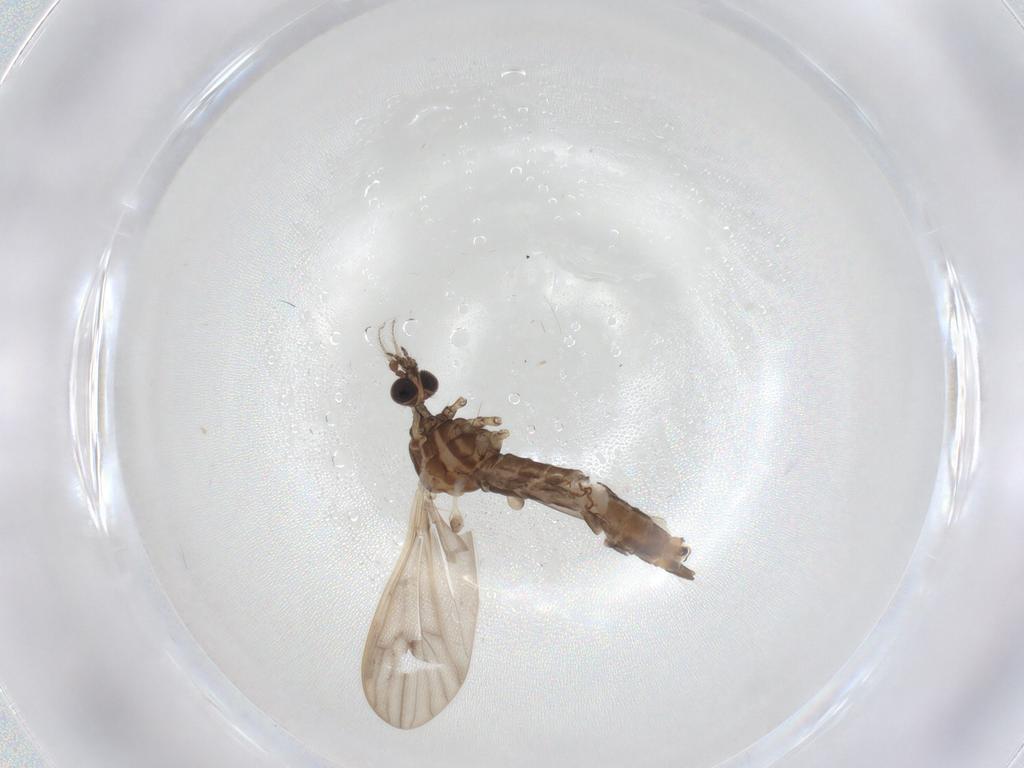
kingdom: Animalia
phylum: Arthropoda
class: Insecta
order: Diptera
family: Limoniidae
